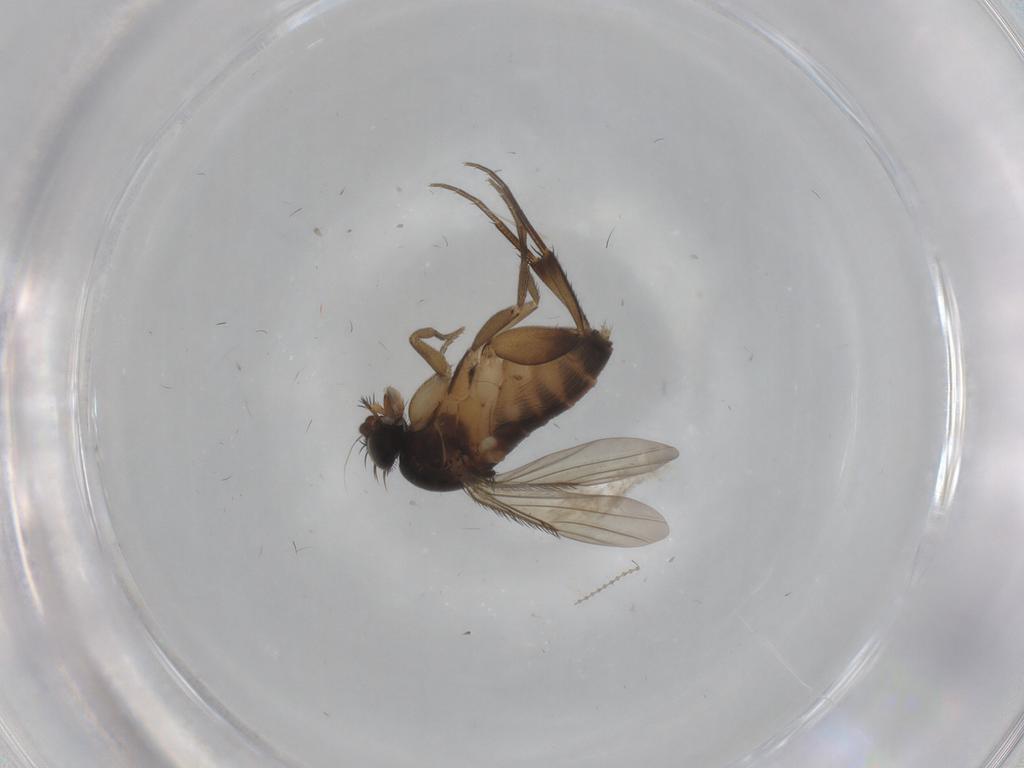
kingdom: Animalia
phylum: Arthropoda
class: Insecta
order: Diptera
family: Phoridae
